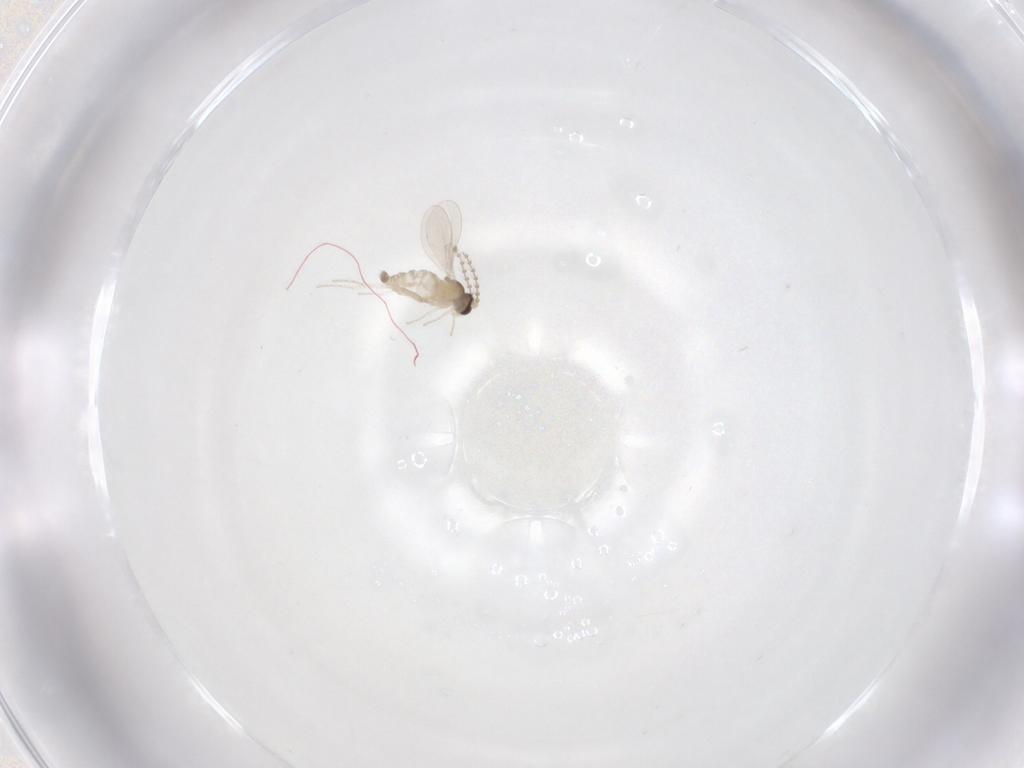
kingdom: Animalia
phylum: Arthropoda
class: Insecta
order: Diptera
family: Cecidomyiidae
